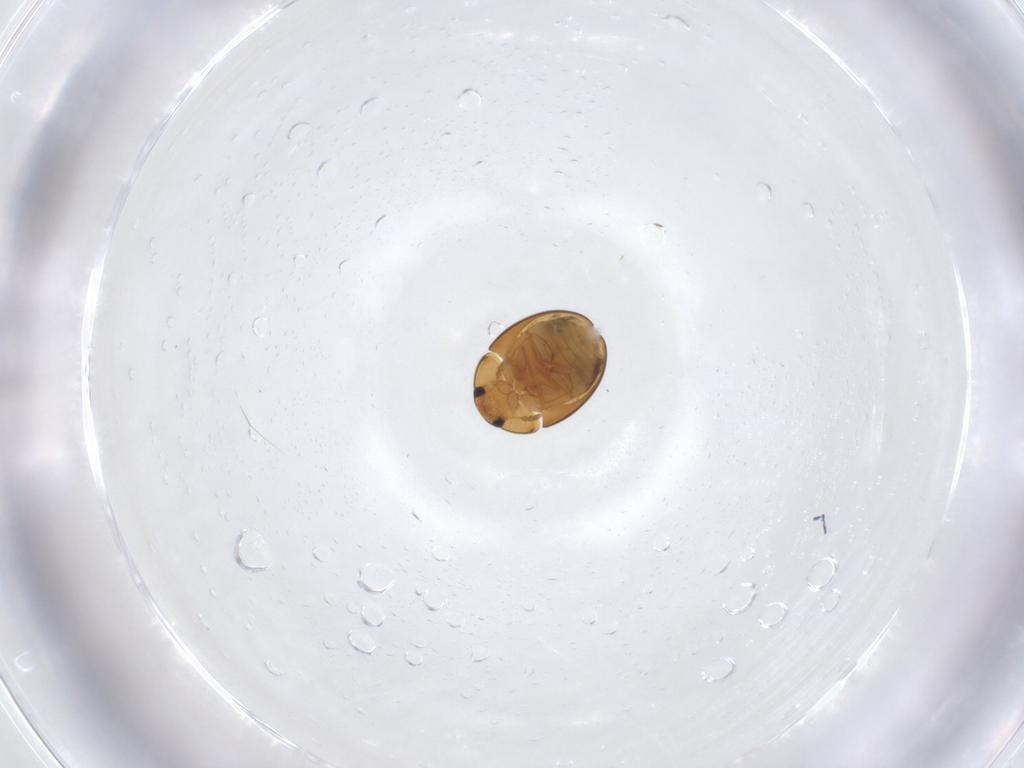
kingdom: Animalia
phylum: Arthropoda
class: Insecta
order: Coleoptera
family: Phalacridae
